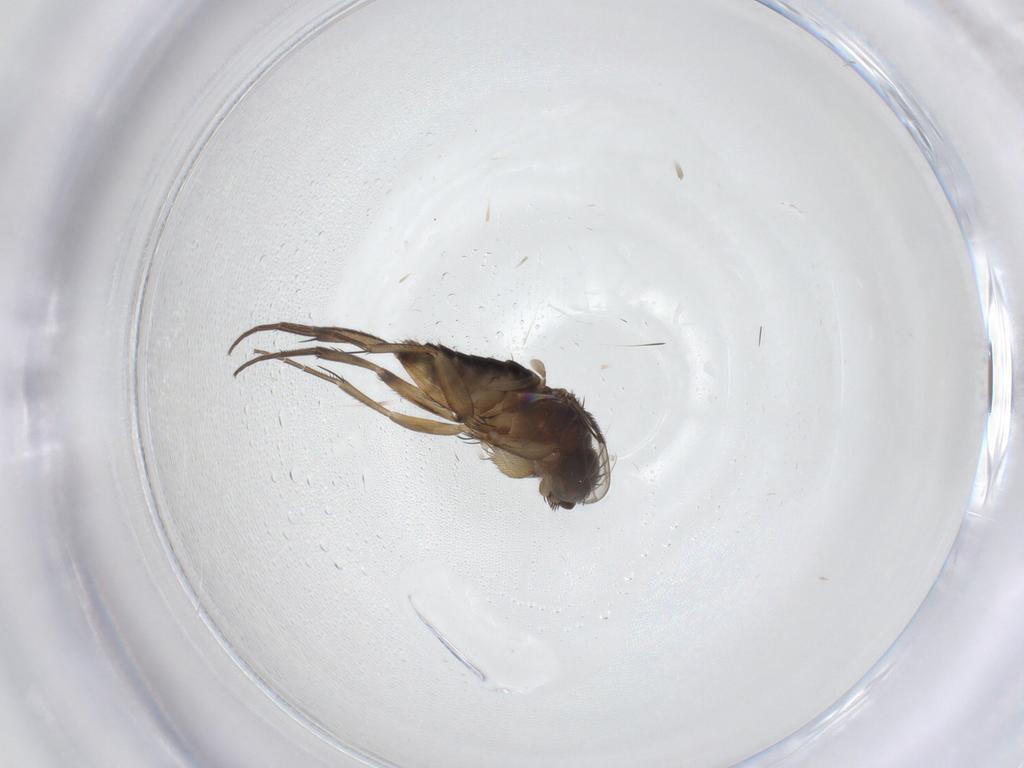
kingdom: Animalia
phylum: Arthropoda
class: Insecta
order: Diptera
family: Phoridae
